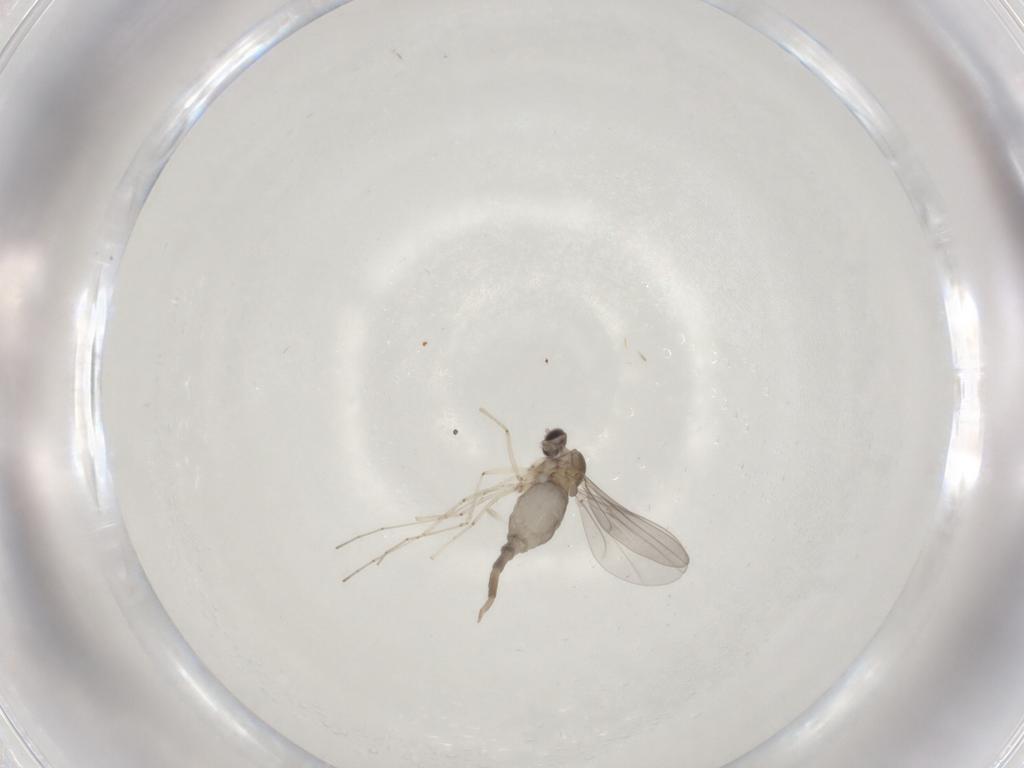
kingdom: Animalia
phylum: Arthropoda
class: Insecta
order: Diptera
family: Cecidomyiidae
